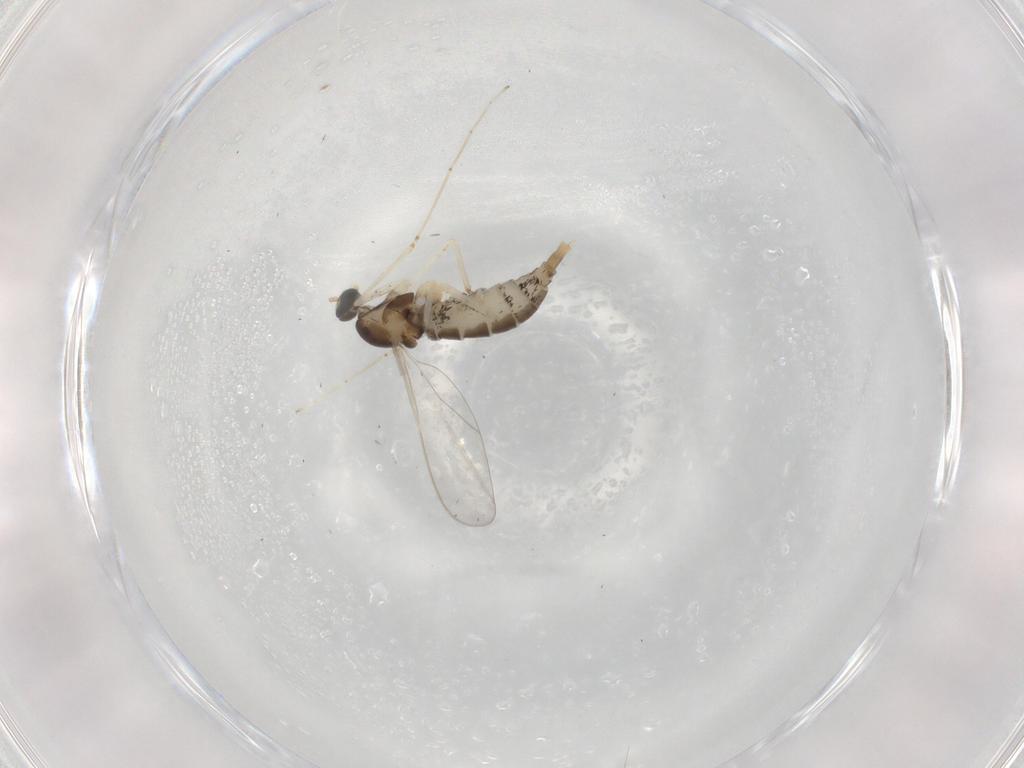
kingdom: Animalia
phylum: Arthropoda
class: Insecta
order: Diptera
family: Cecidomyiidae
